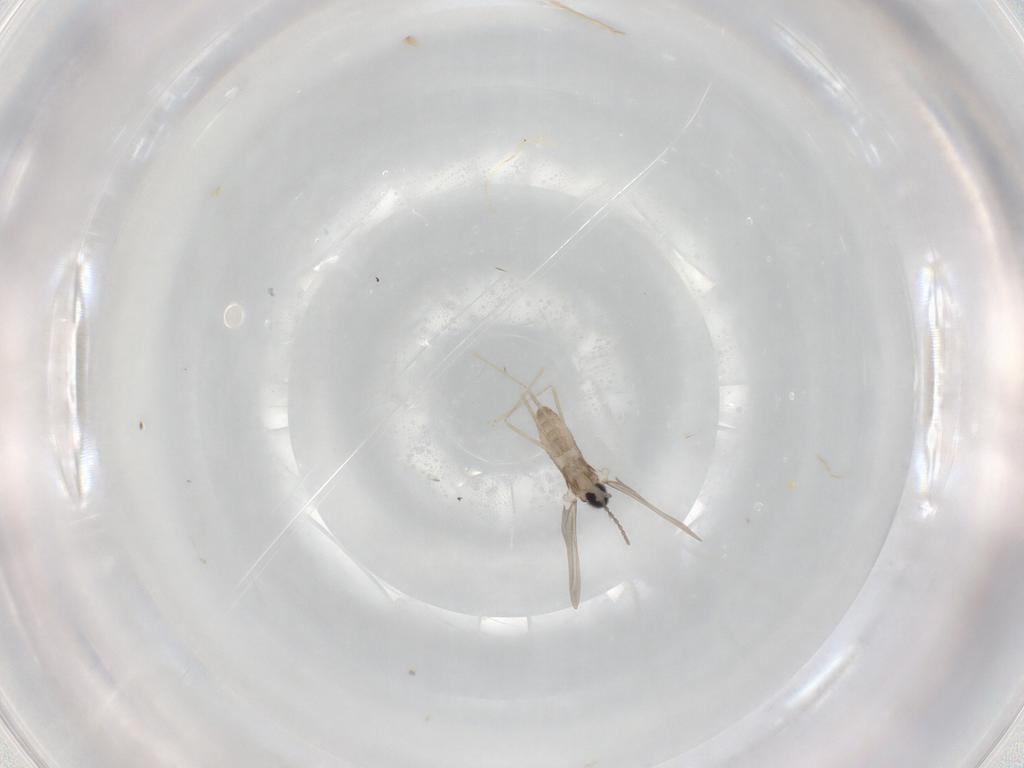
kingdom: Animalia
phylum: Arthropoda
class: Insecta
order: Diptera
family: Cecidomyiidae
